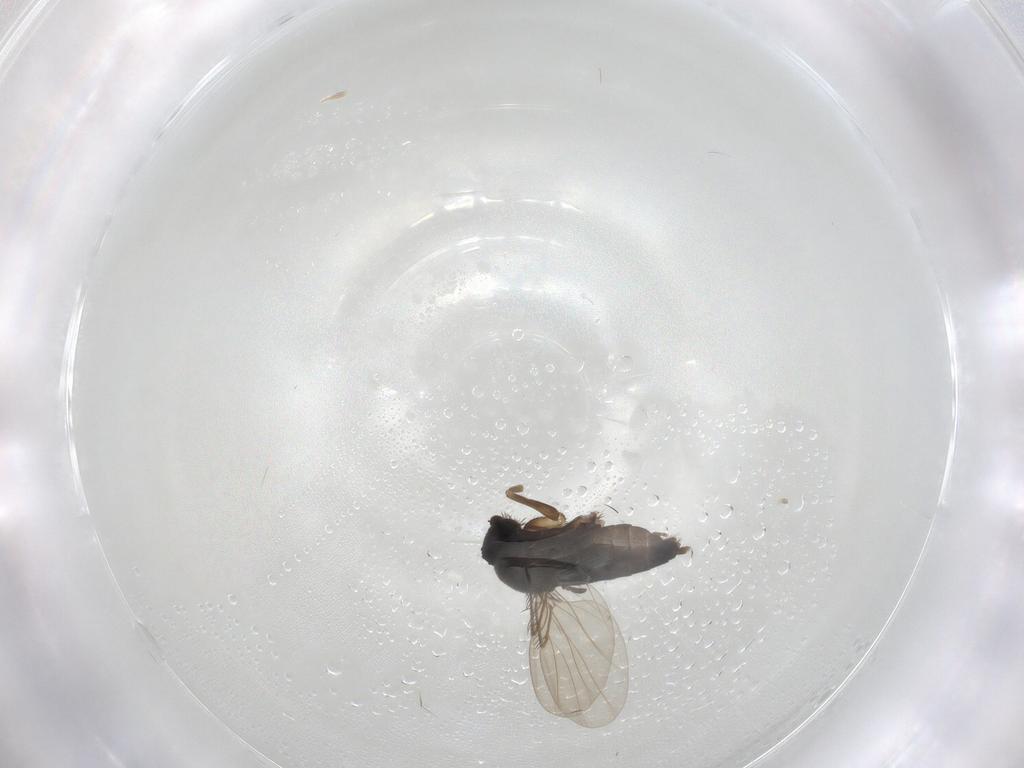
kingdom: Animalia
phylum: Arthropoda
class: Insecta
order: Diptera
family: Phoridae
